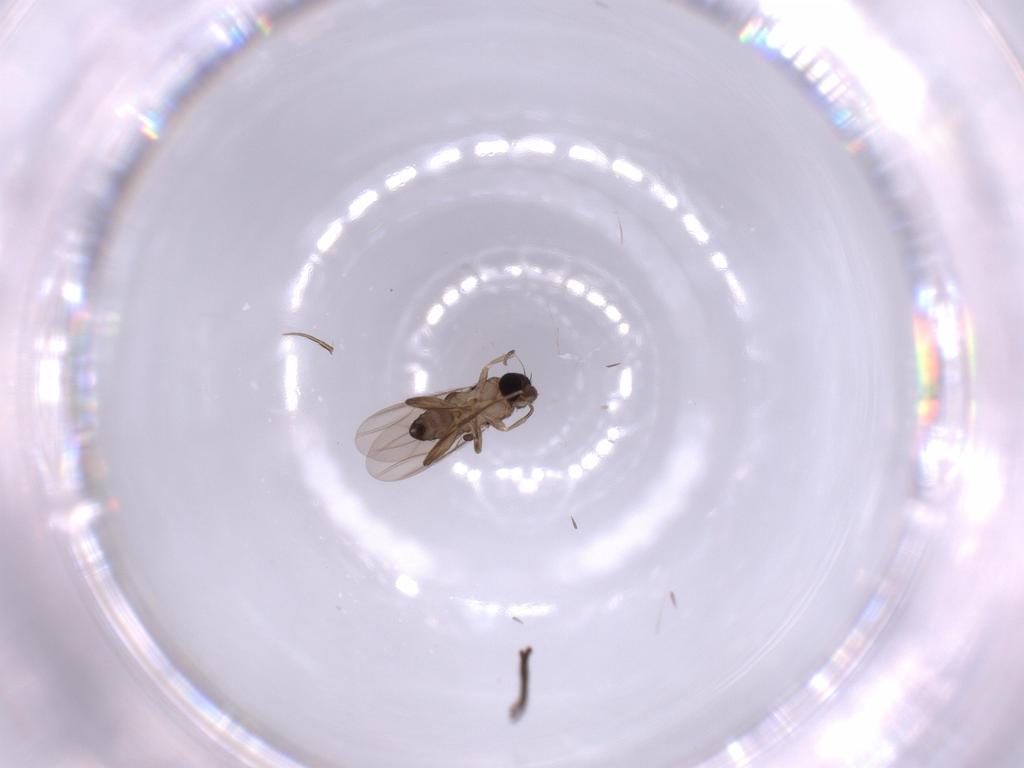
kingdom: Animalia
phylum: Arthropoda
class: Insecta
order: Diptera
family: Phoridae
